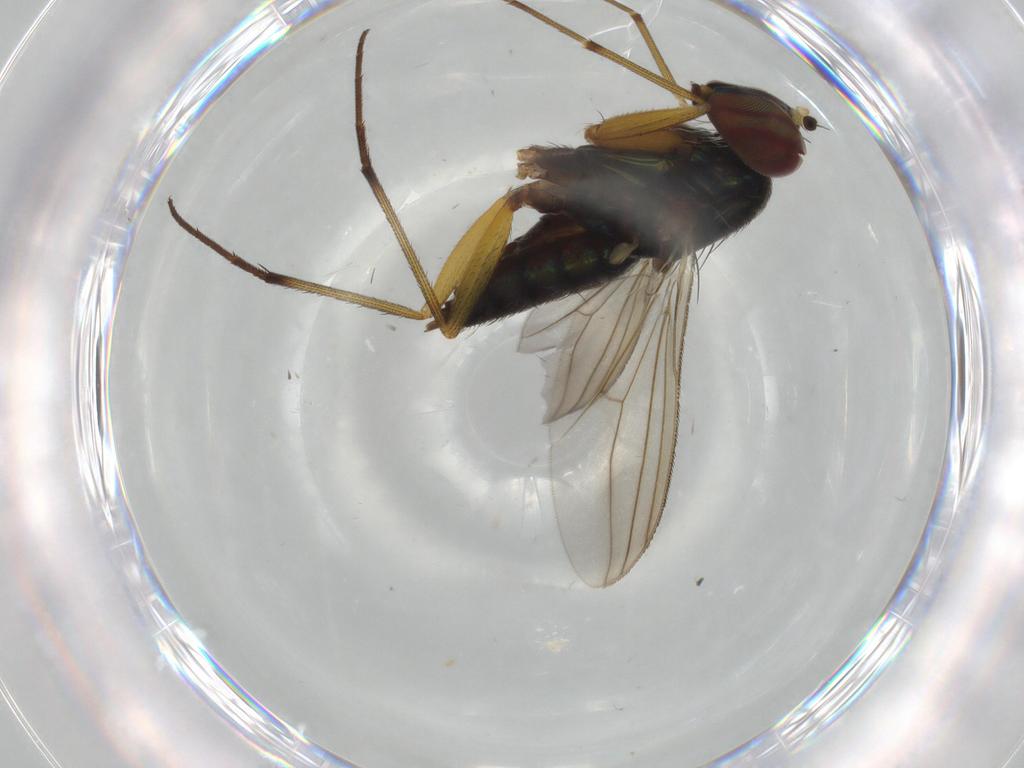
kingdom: Animalia
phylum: Arthropoda
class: Insecta
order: Diptera
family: Dolichopodidae
